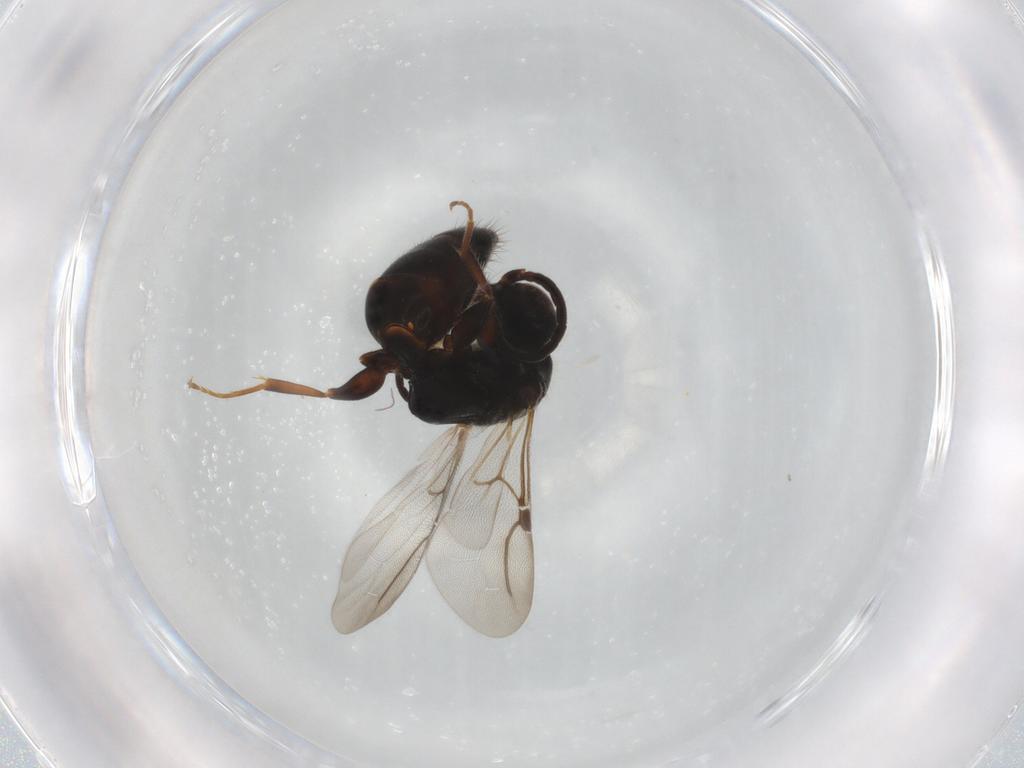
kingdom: Animalia
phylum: Arthropoda
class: Insecta
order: Hymenoptera
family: Bethylidae
